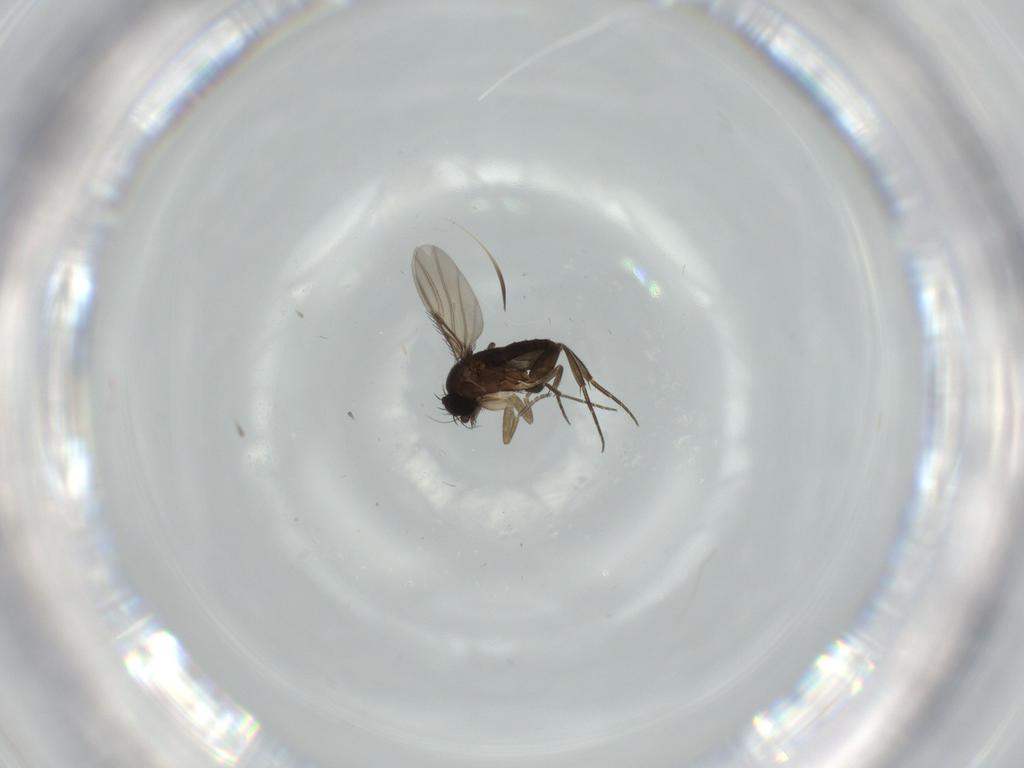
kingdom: Animalia
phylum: Arthropoda
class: Insecta
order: Diptera
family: Phoridae
